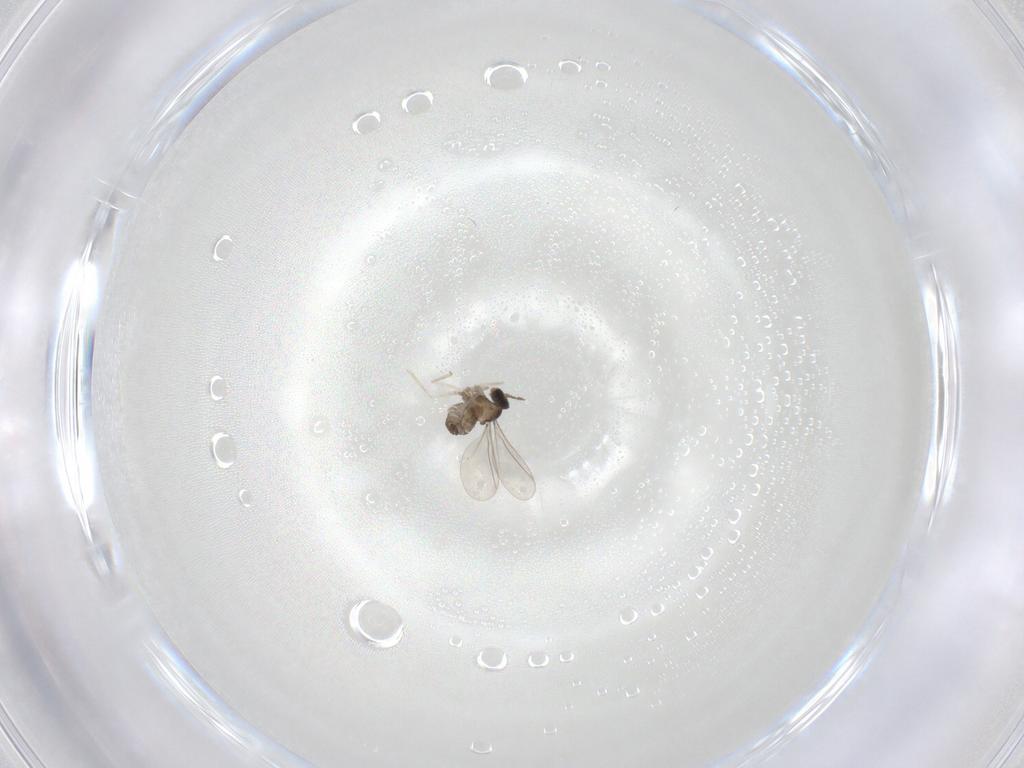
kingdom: Animalia
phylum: Arthropoda
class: Insecta
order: Diptera
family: Cecidomyiidae
